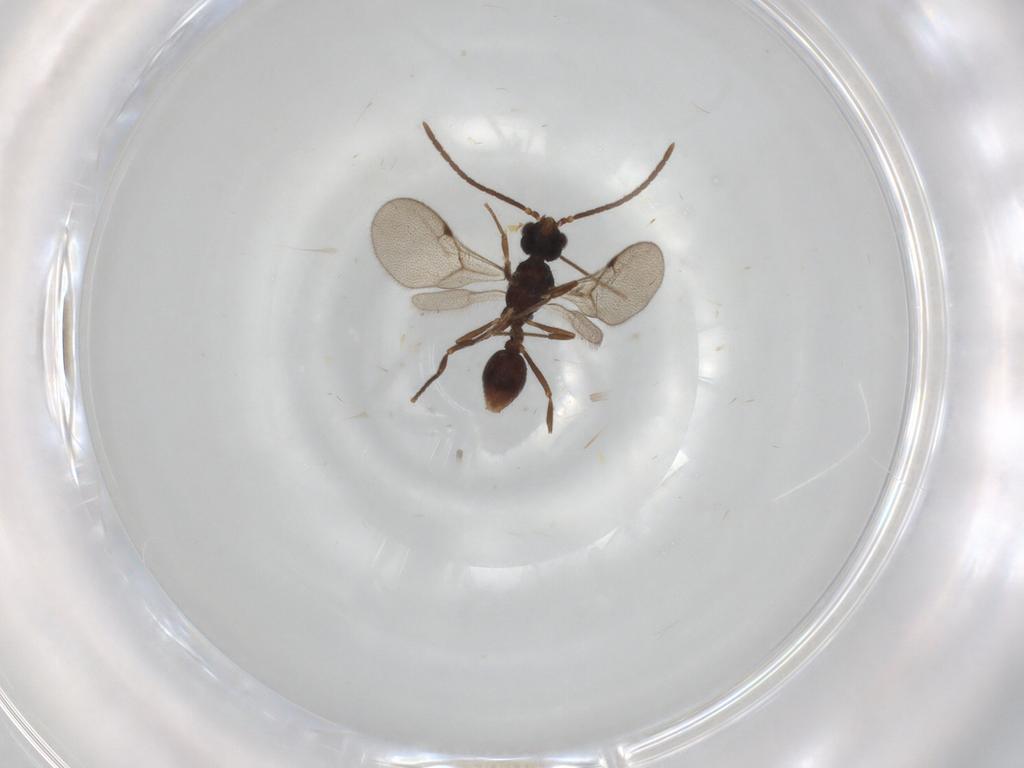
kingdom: Animalia
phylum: Arthropoda
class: Insecta
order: Hymenoptera
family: Formicidae
